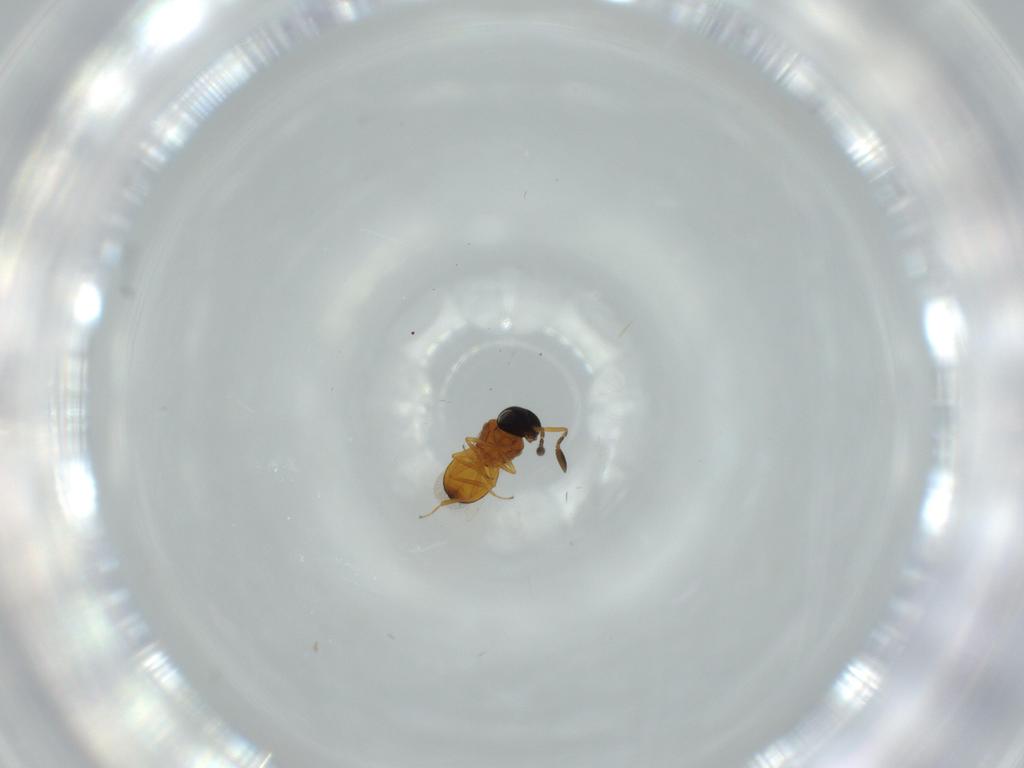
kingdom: Animalia
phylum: Arthropoda
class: Insecta
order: Hymenoptera
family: Scelionidae
